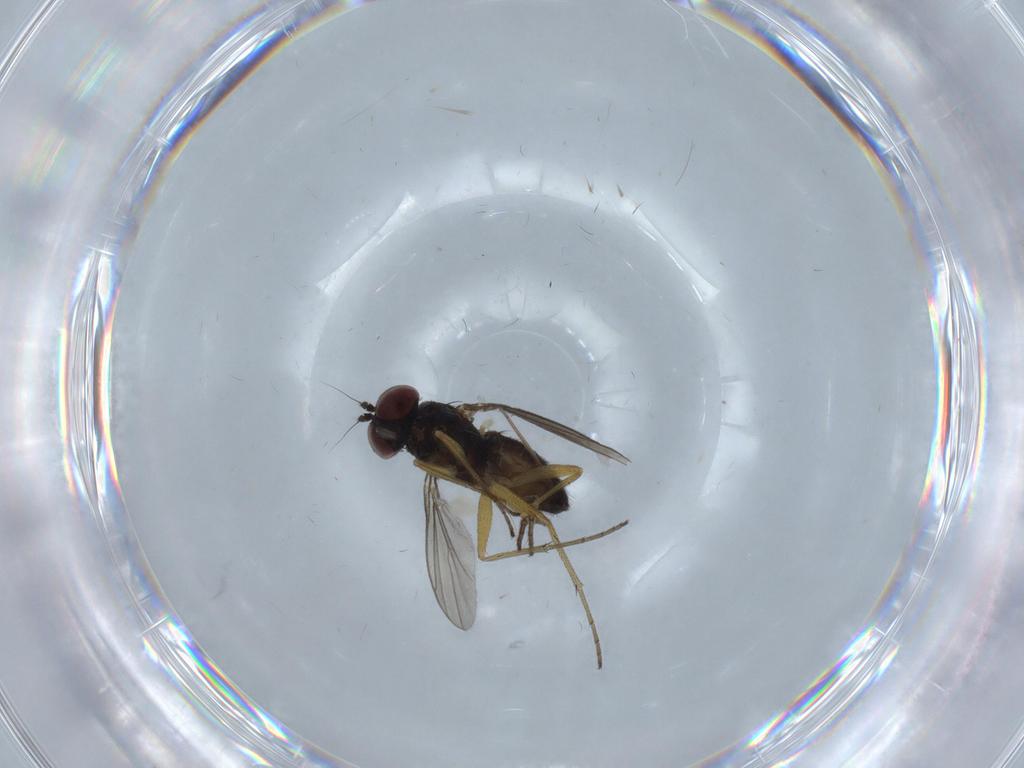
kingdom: Animalia
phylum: Arthropoda
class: Insecta
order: Diptera
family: Dolichopodidae
